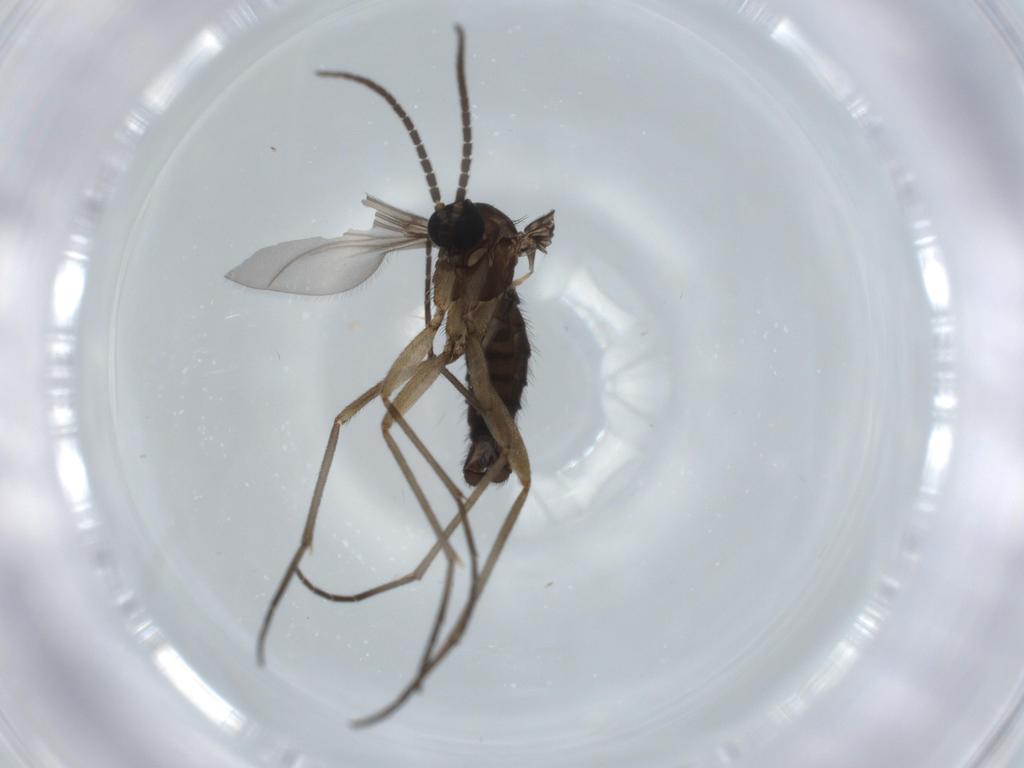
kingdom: Animalia
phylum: Arthropoda
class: Insecta
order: Diptera
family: Sciaridae
